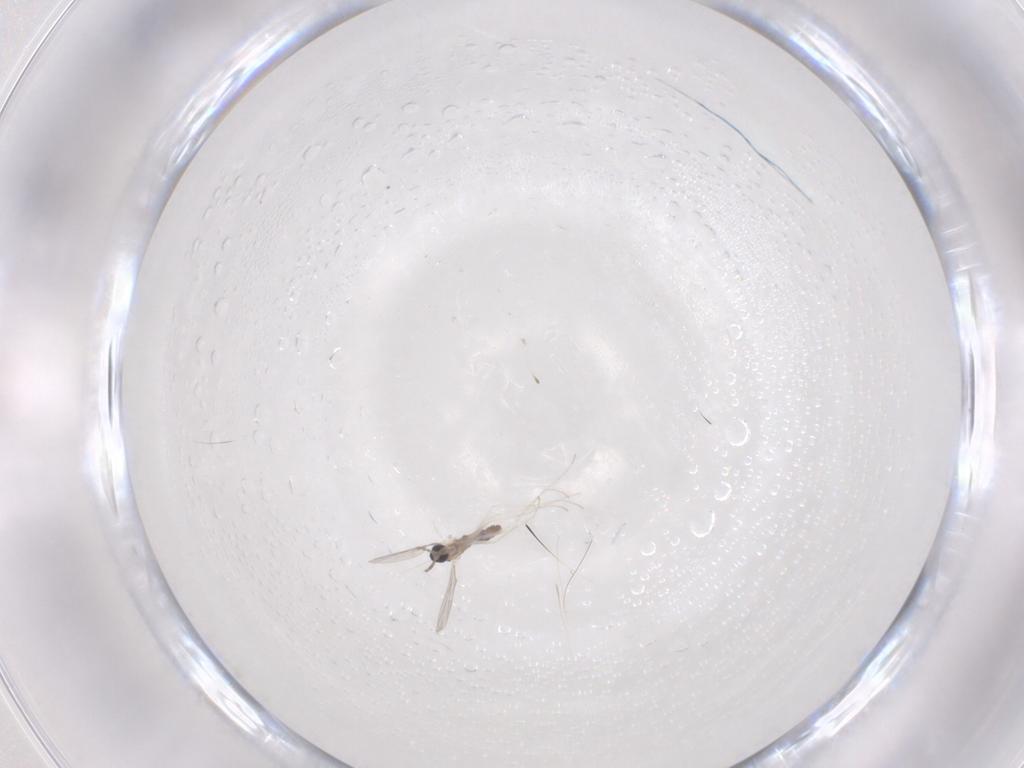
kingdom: Animalia
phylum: Arthropoda
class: Insecta
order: Diptera
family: Cecidomyiidae
